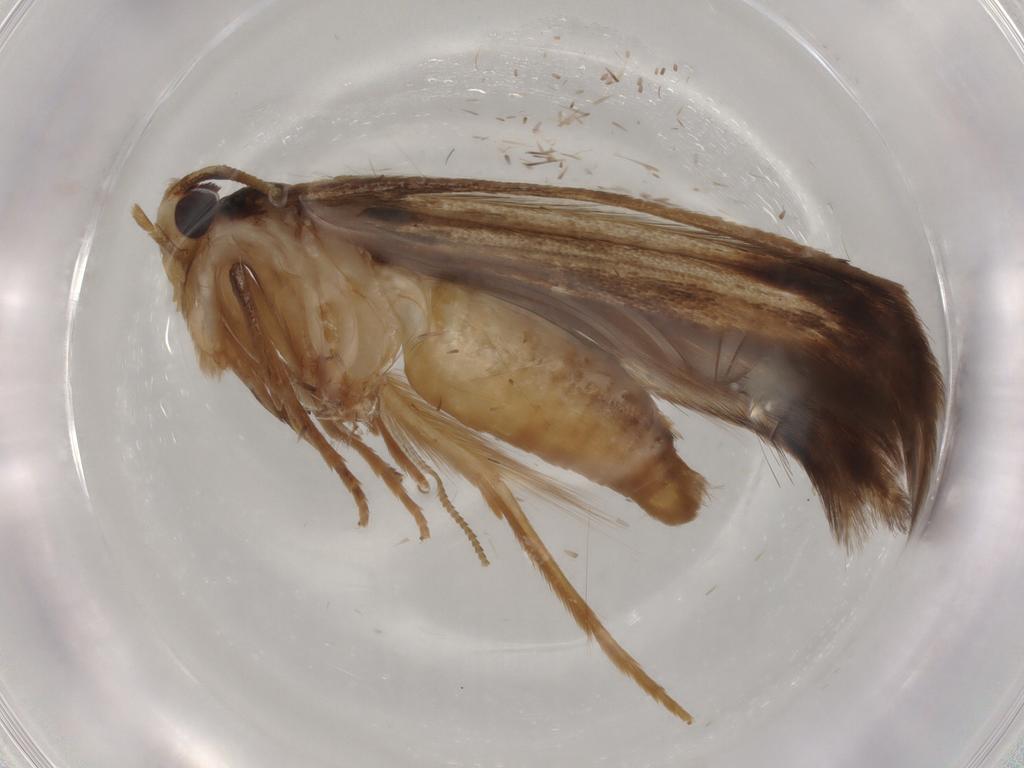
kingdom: Animalia
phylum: Arthropoda
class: Insecta
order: Lepidoptera
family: Tineidae
